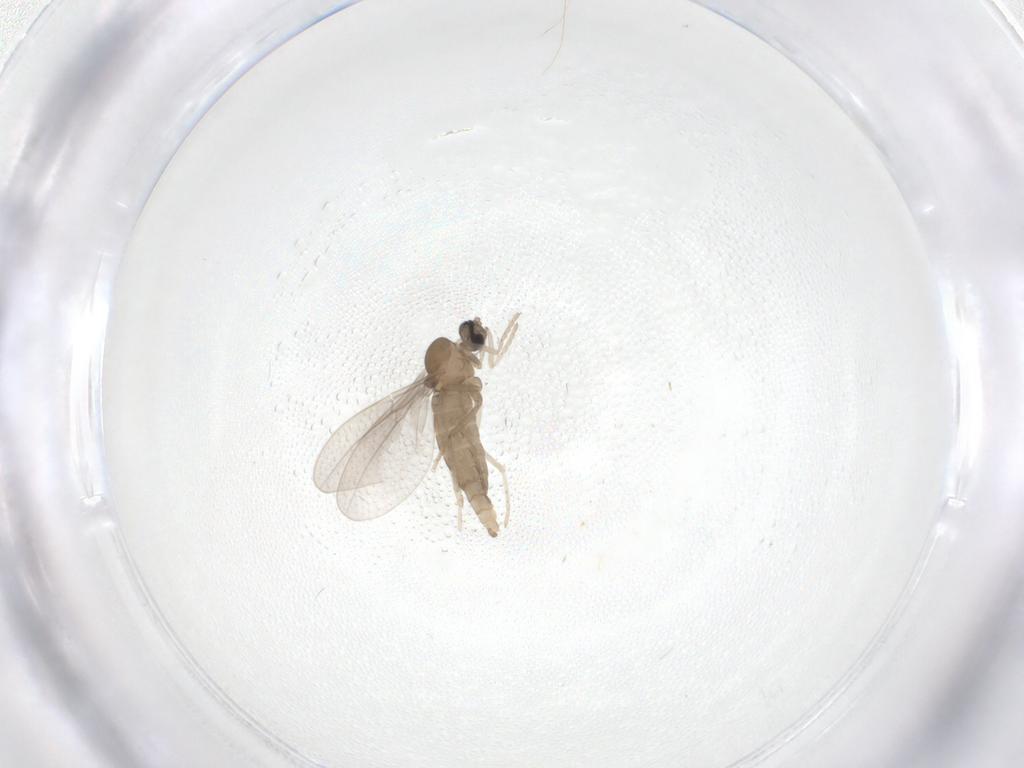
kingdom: Animalia
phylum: Arthropoda
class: Insecta
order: Diptera
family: Cecidomyiidae
